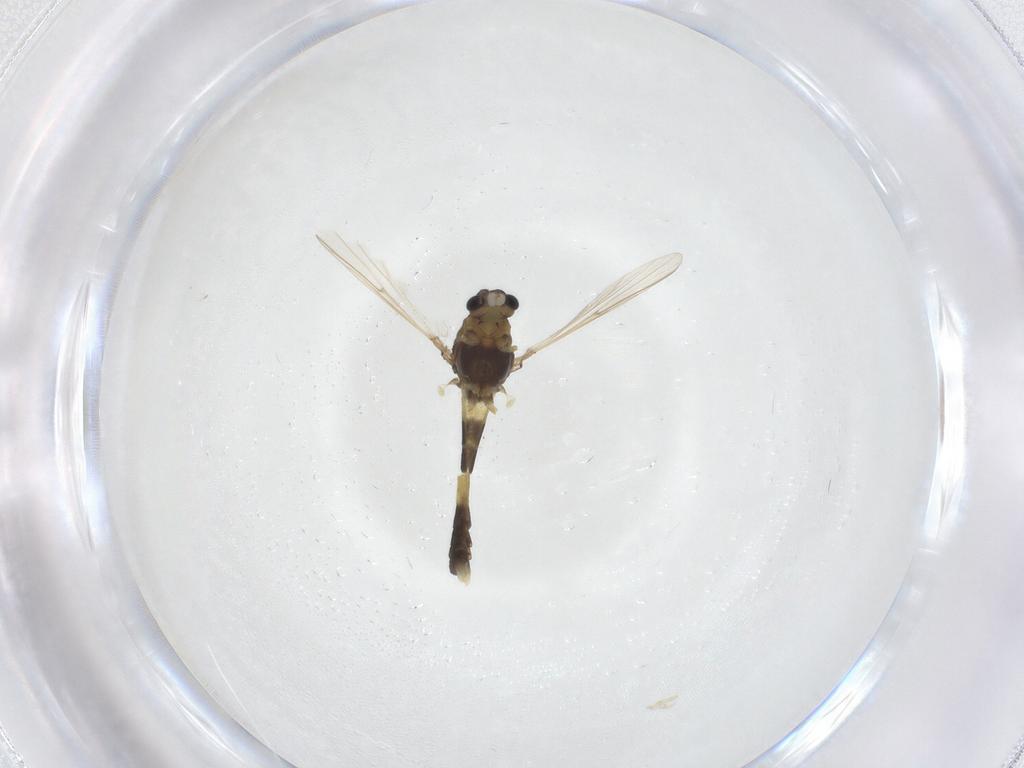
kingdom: Animalia
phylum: Arthropoda
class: Insecta
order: Diptera
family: Chironomidae
